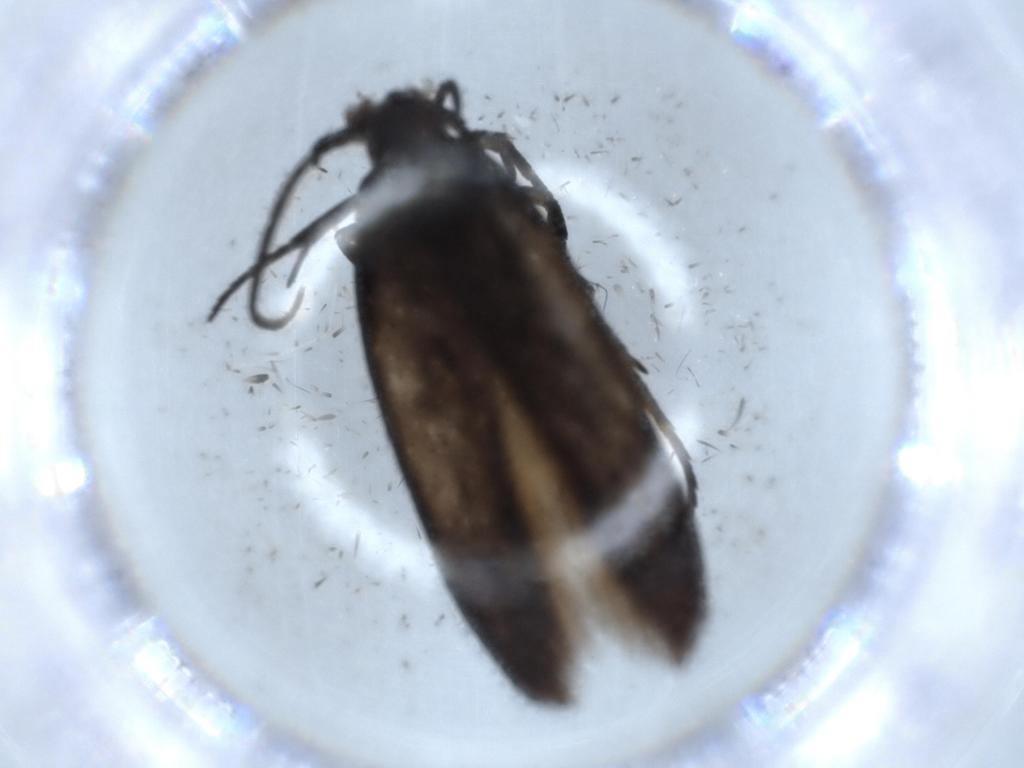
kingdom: Animalia
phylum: Arthropoda
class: Insecta
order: Lepidoptera
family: Cosmopterigidae
